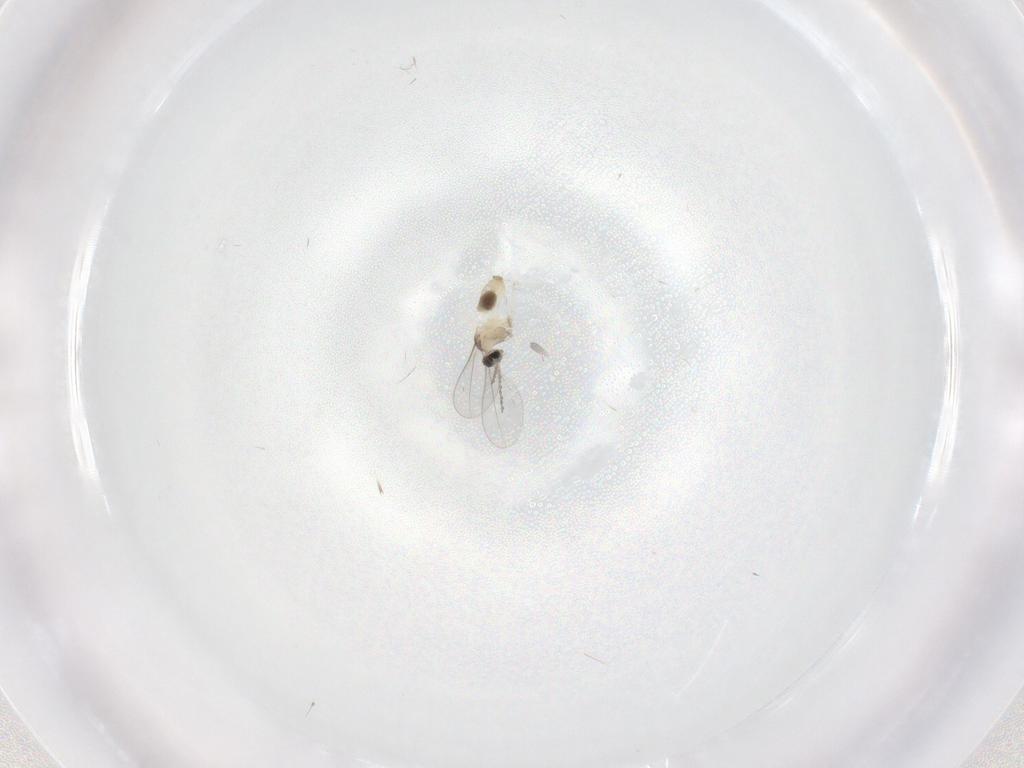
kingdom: Animalia
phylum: Arthropoda
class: Insecta
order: Diptera
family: Cecidomyiidae
